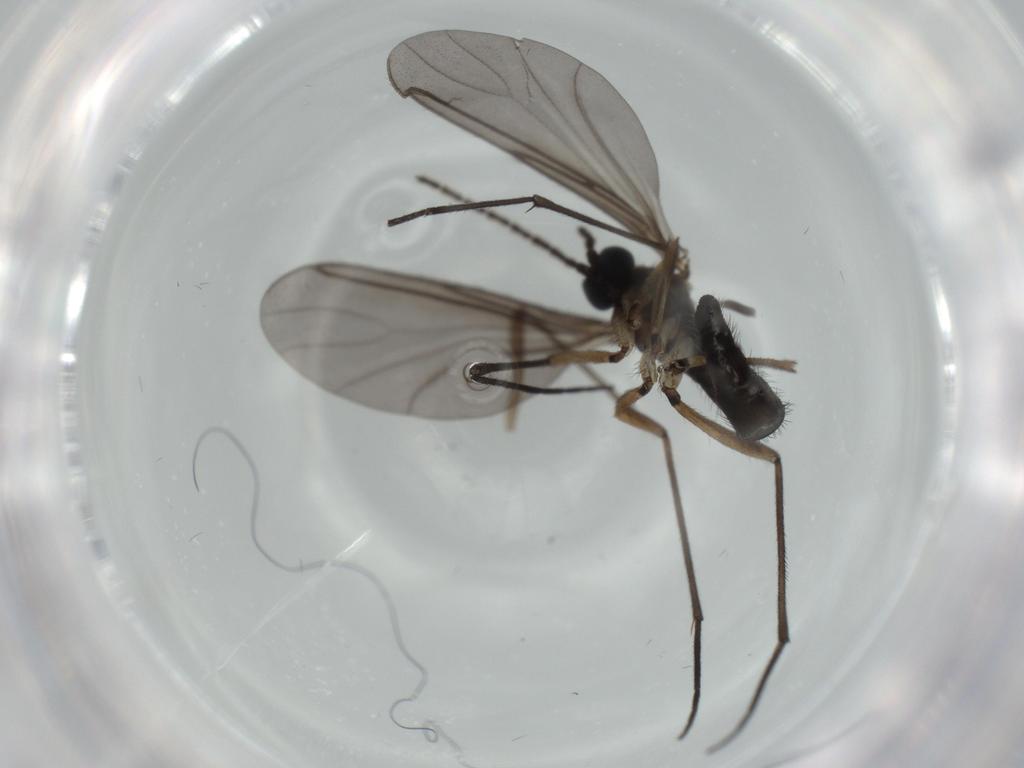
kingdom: Animalia
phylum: Arthropoda
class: Insecta
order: Diptera
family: Sciaridae
